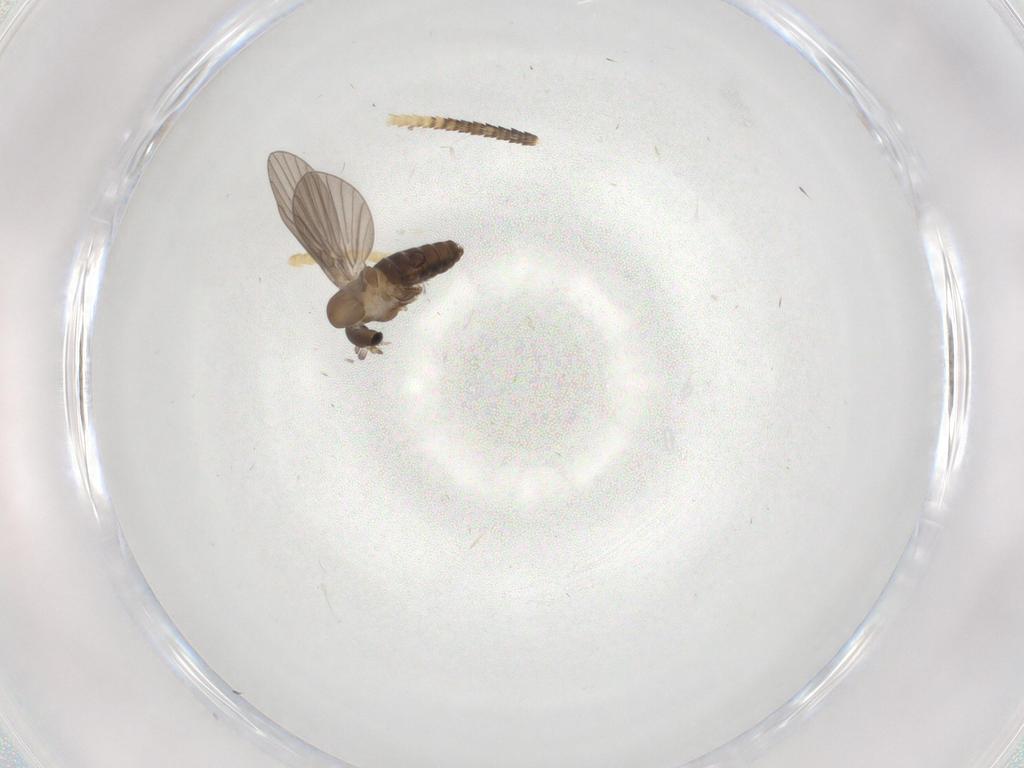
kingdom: Animalia
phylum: Arthropoda
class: Insecta
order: Diptera
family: Psychodidae
